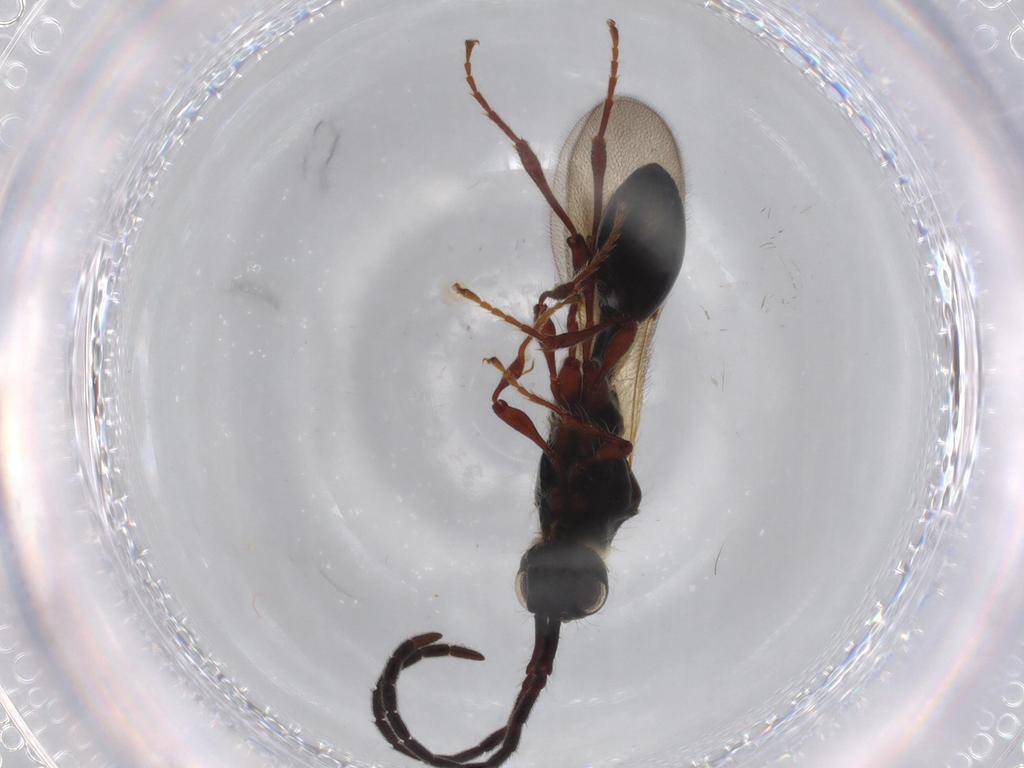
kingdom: Animalia
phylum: Arthropoda
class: Insecta
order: Hymenoptera
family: Diapriidae
